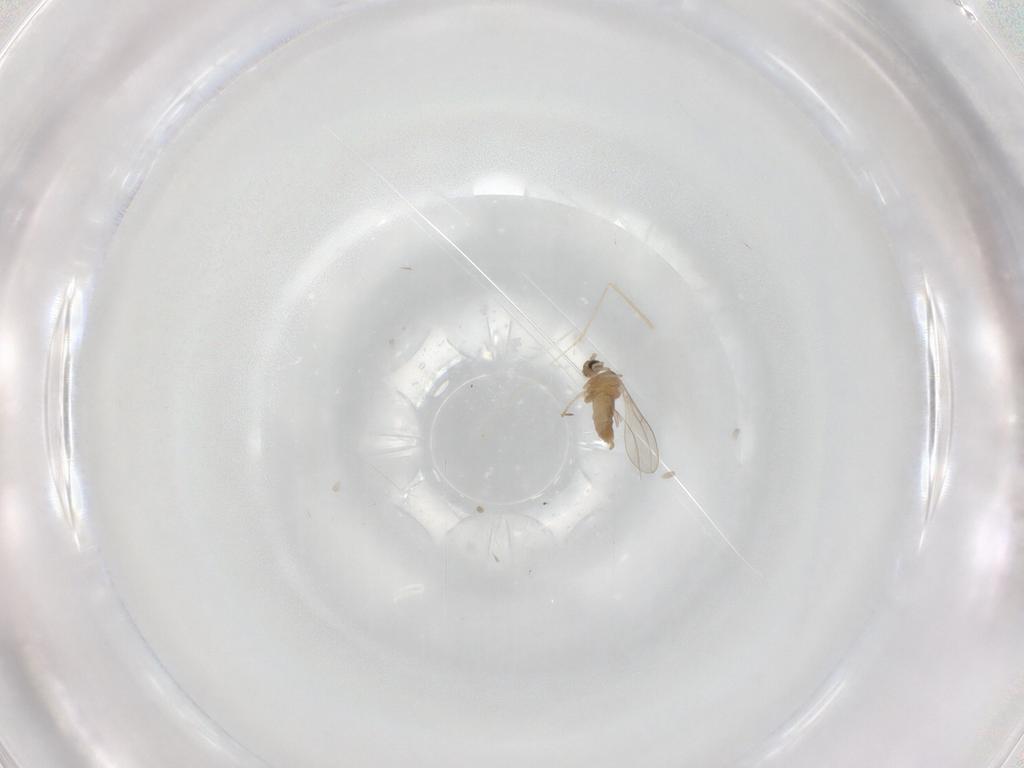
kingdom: Animalia
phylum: Arthropoda
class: Insecta
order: Diptera
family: Cecidomyiidae
